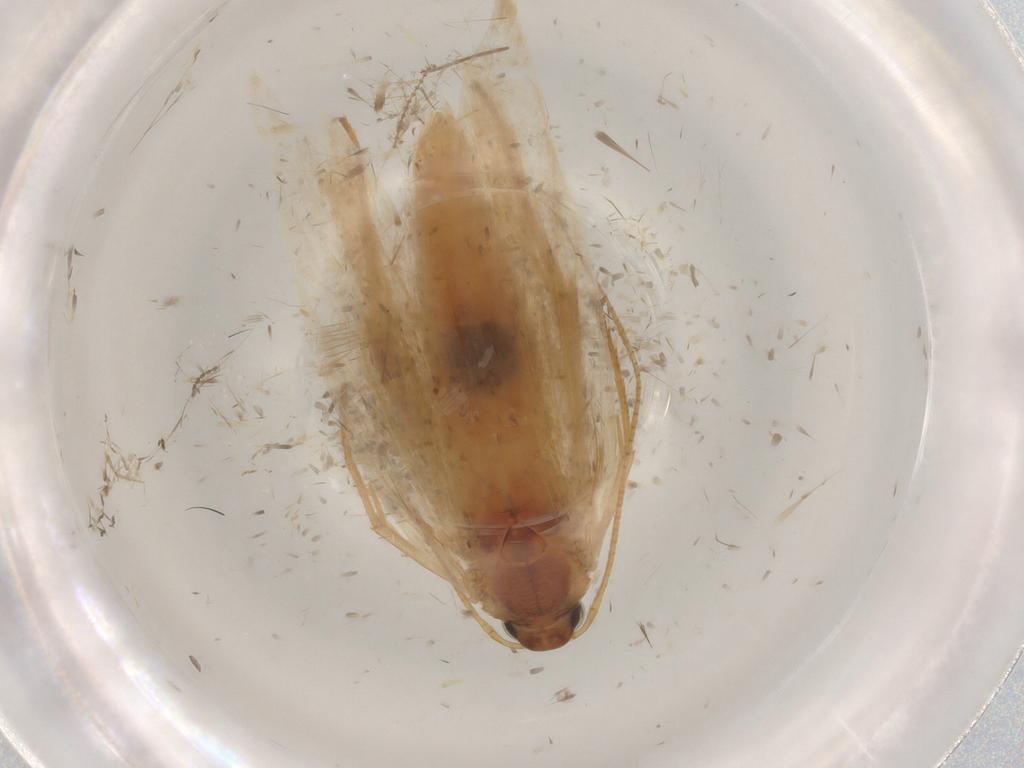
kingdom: Animalia
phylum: Arthropoda
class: Insecta
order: Lepidoptera
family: Gelechiidae
